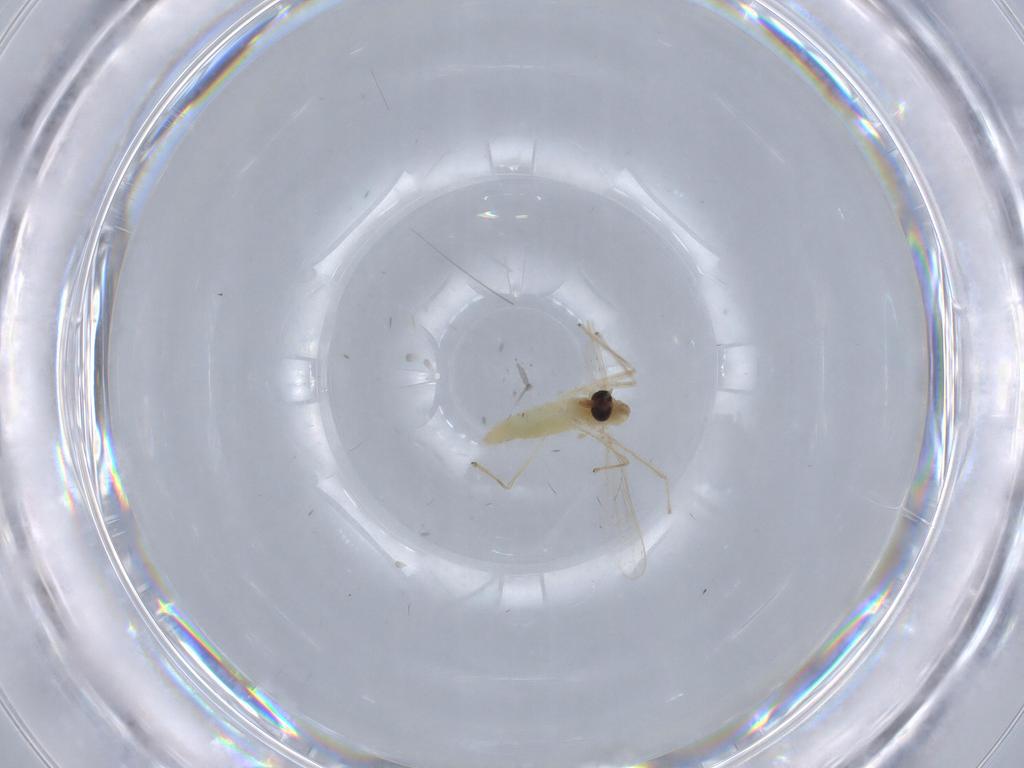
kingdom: Animalia
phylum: Arthropoda
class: Insecta
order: Diptera
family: Chironomidae
